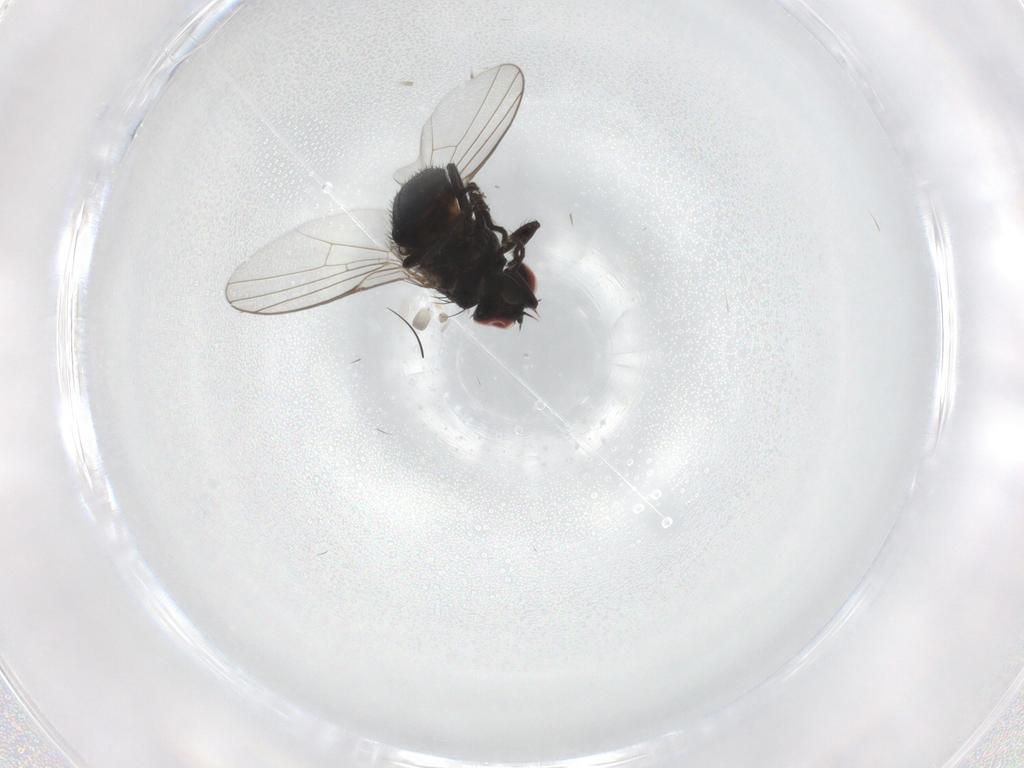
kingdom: Animalia
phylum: Arthropoda
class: Insecta
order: Diptera
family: Agromyzidae
